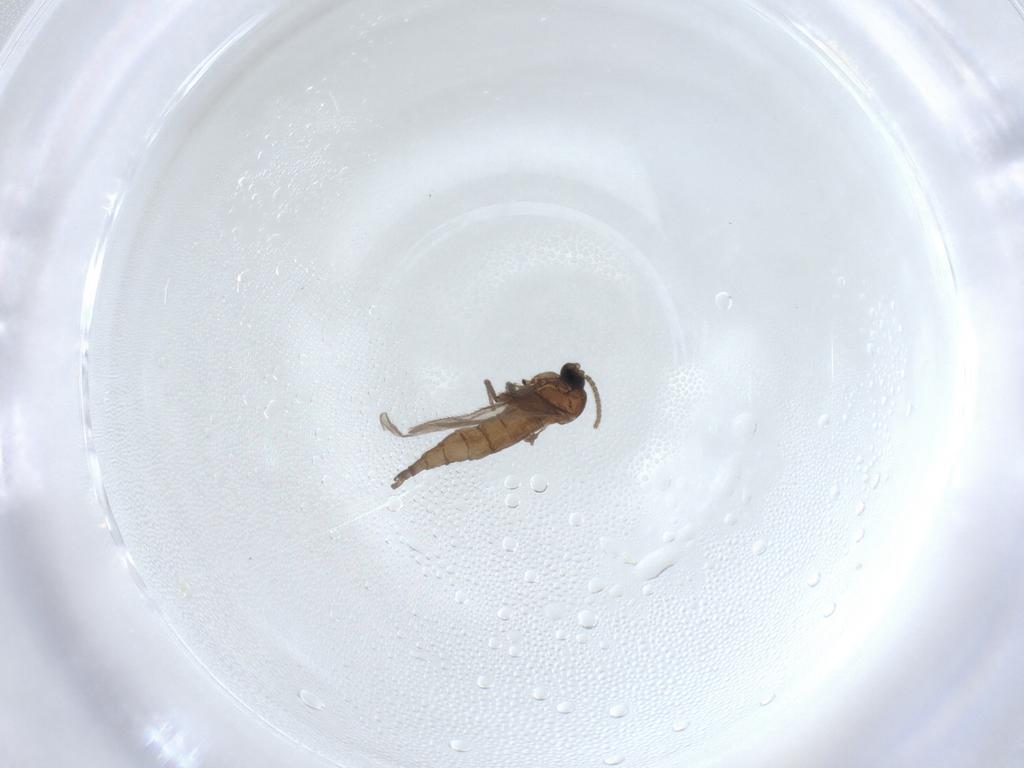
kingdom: Animalia
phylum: Arthropoda
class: Insecta
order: Diptera
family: Sciaridae
